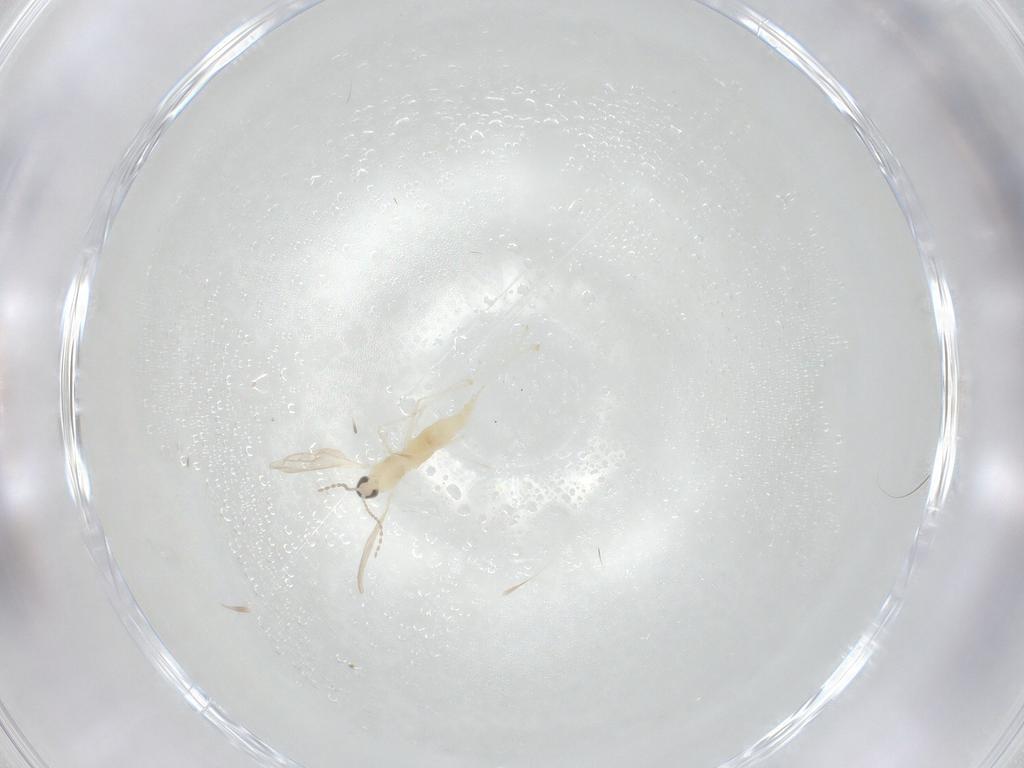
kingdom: Animalia
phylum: Arthropoda
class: Insecta
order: Diptera
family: Cecidomyiidae
